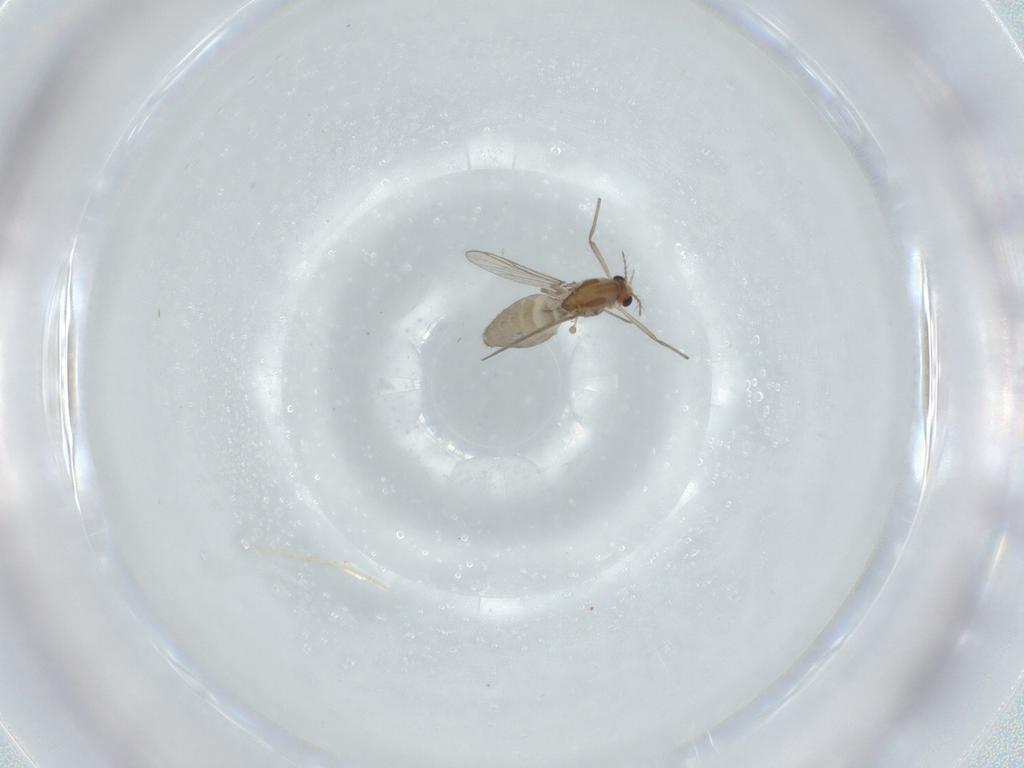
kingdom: Animalia
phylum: Arthropoda
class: Insecta
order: Diptera
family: Chironomidae
